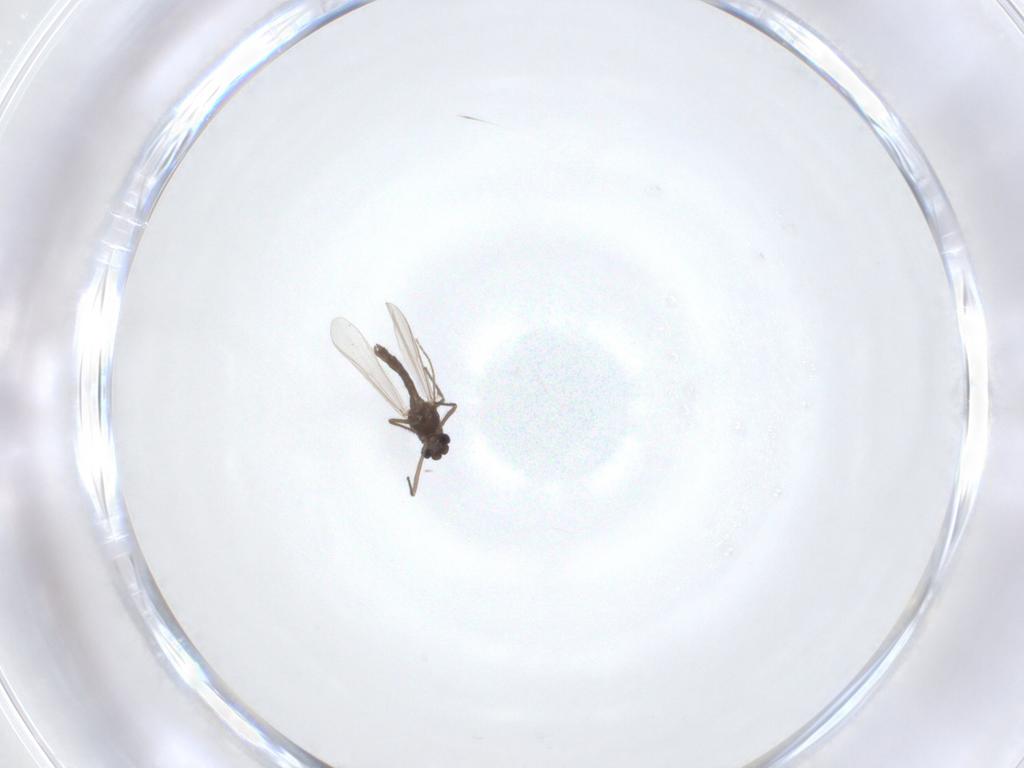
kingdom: Animalia
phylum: Arthropoda
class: Insecta
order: Diptera
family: Chironomidae
